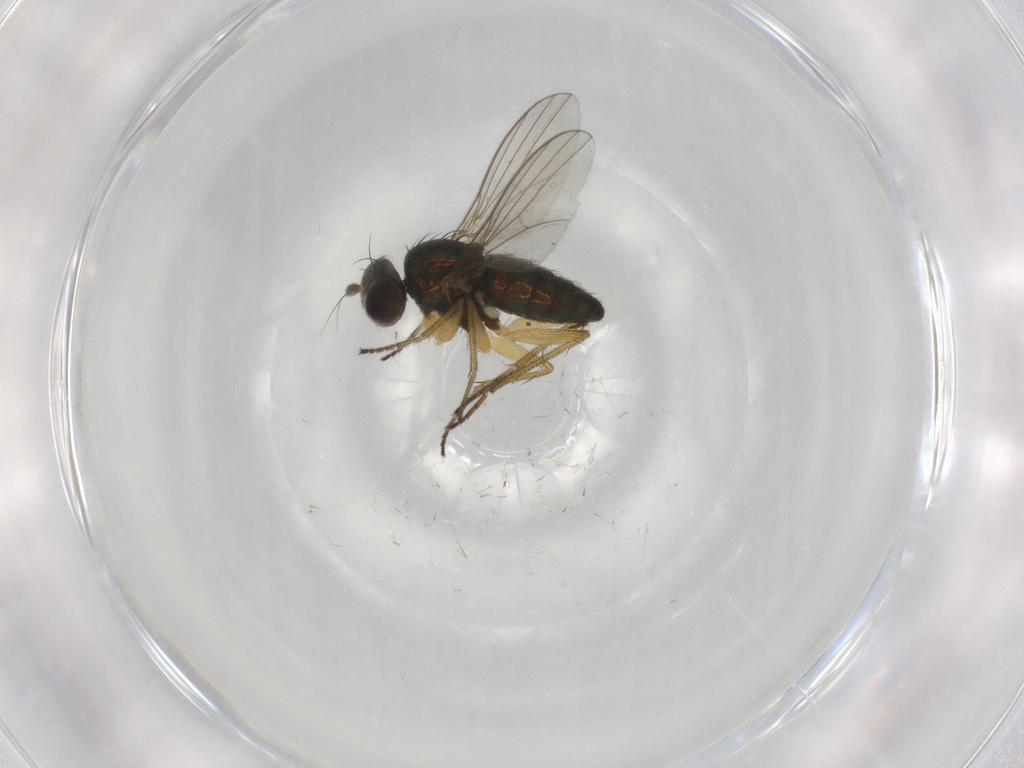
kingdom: Animalia
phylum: Arthropoda
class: Insecta
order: Diptera
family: Dolichopodidae
